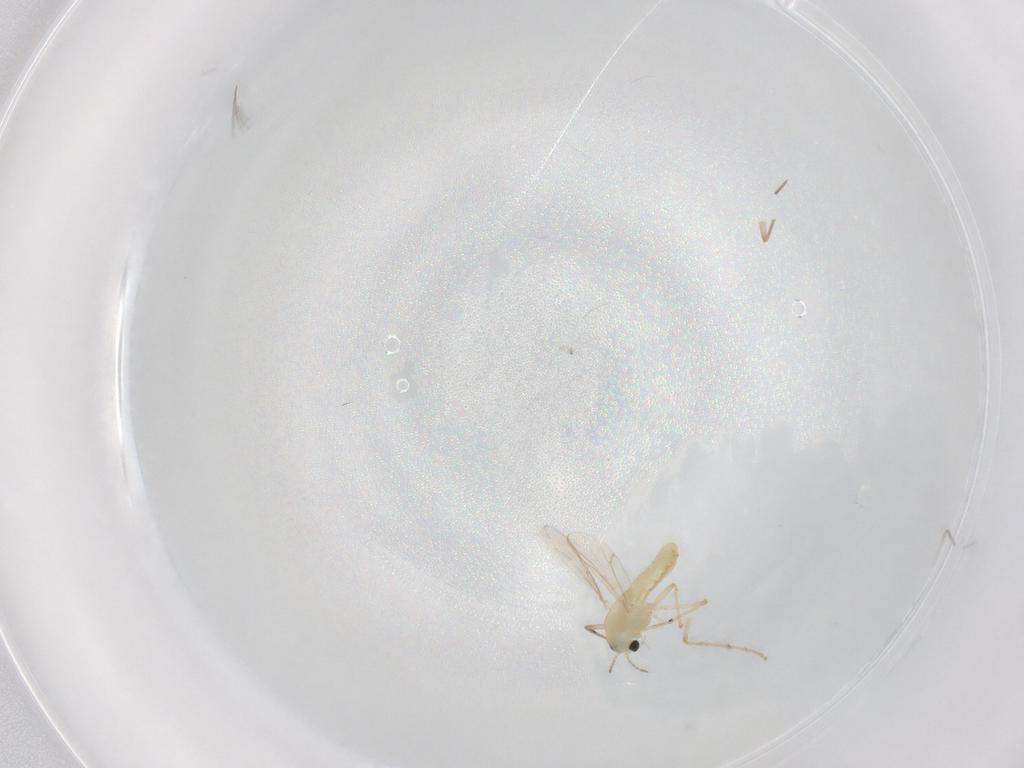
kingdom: Animalia
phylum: Arthropoda
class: Insecta
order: Diptera
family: Chironomidae
